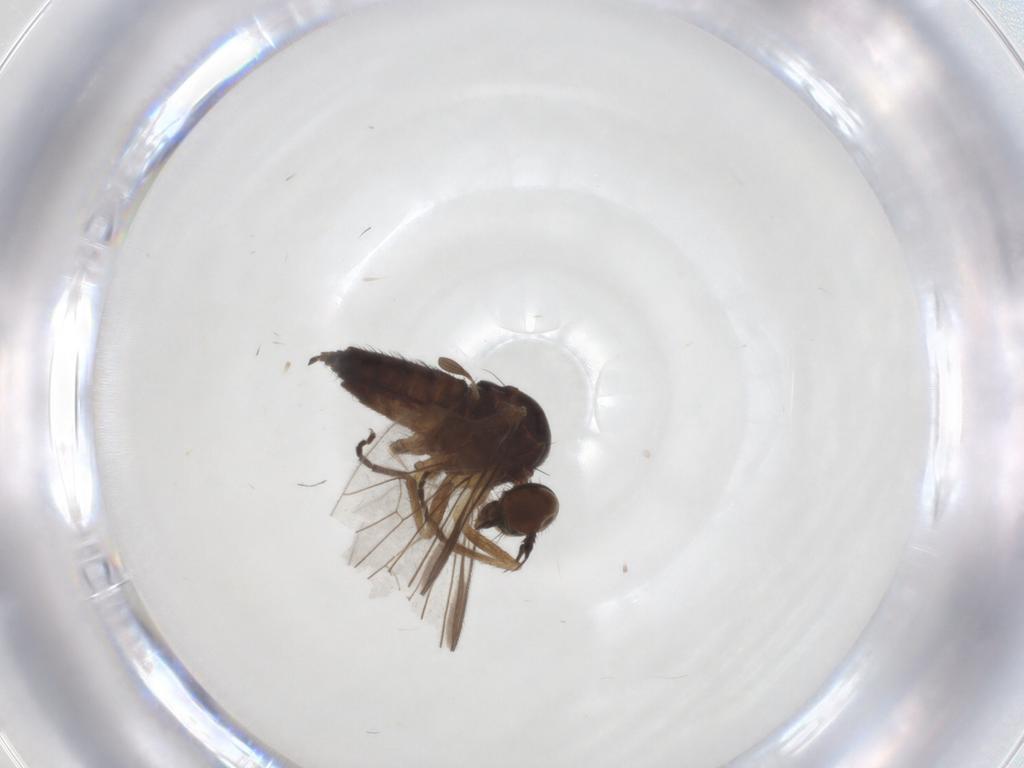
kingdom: Animalia
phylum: Arthropoda
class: Insecta
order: Diptera
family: Empididae
